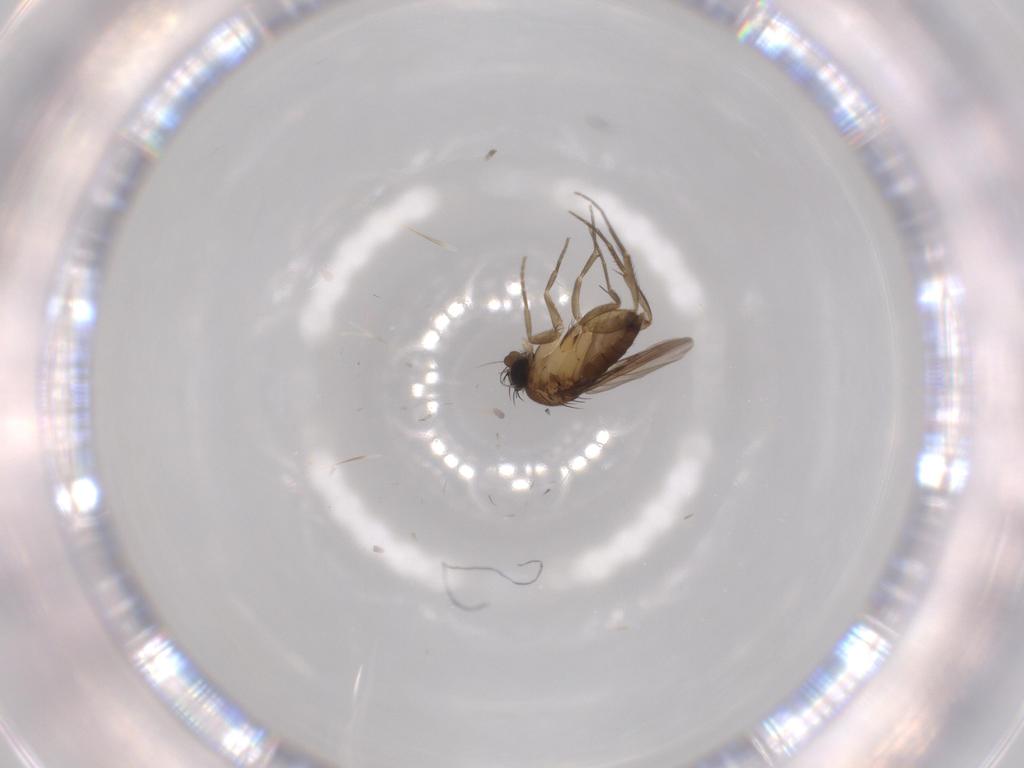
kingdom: Animalia
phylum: Arthropoda
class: Insecta
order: Diptera
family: Phoridae
